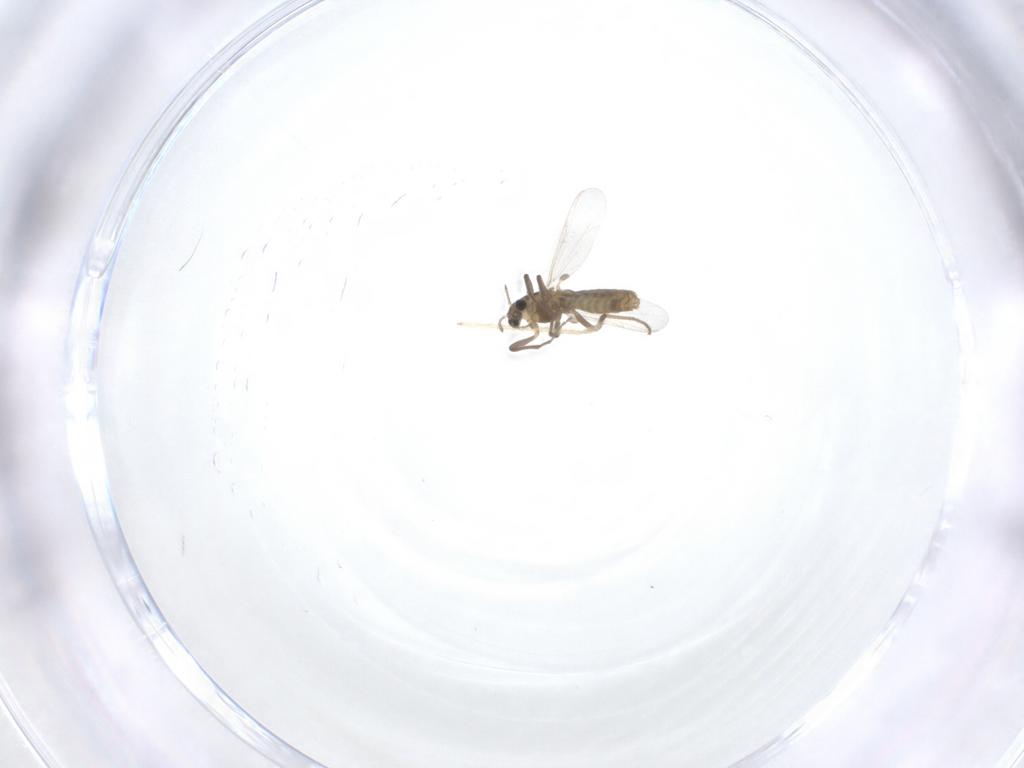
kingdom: Animalia
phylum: Arthropoda
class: Insecta
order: Diptera
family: Chironomidae
